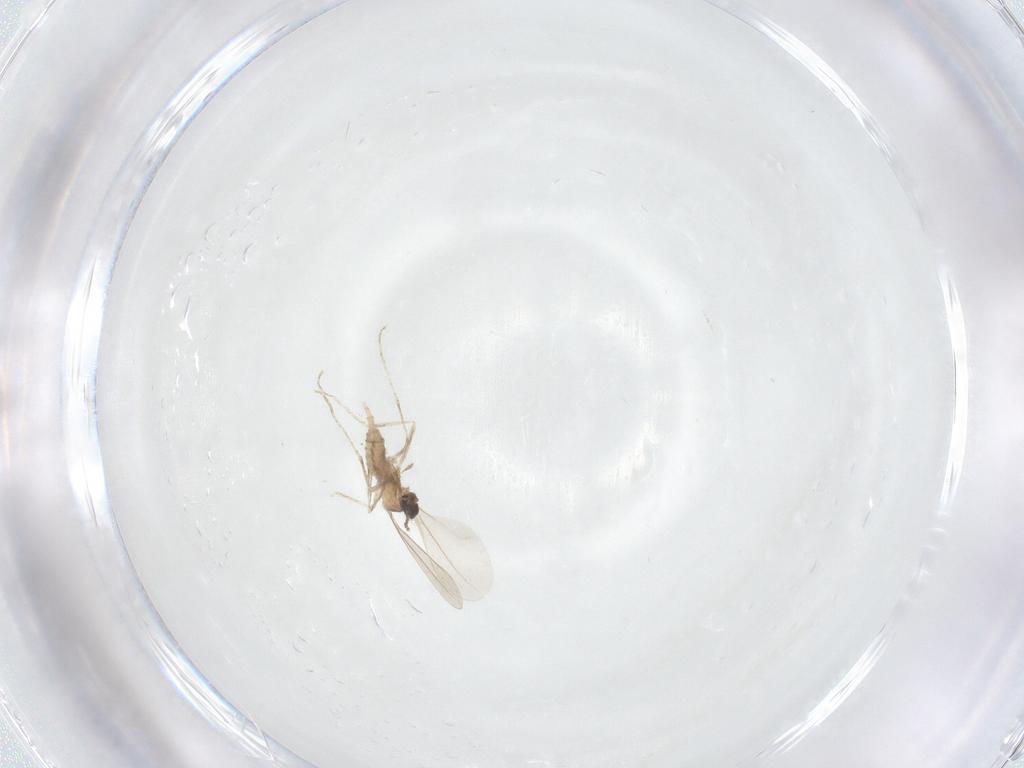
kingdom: Animalia
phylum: Arthropoda
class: Insecta
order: Diptera
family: Cecidomyiidae
